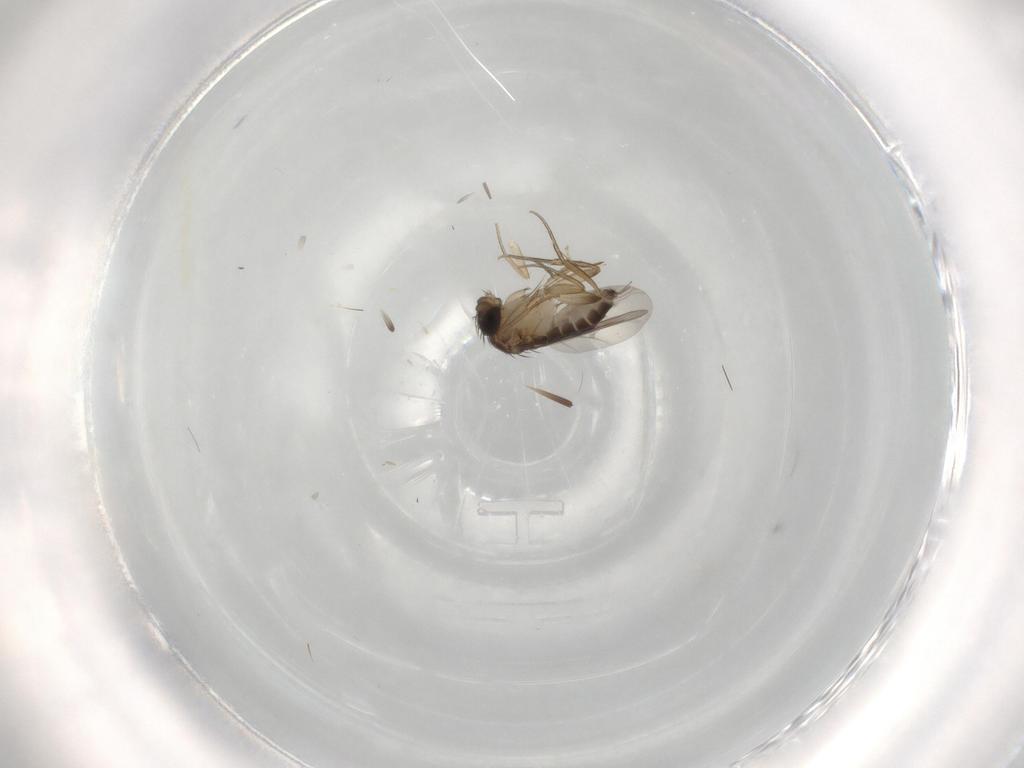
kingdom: Animalia
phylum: Arthropoda
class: Insecta
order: Diptera
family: Phoridae
